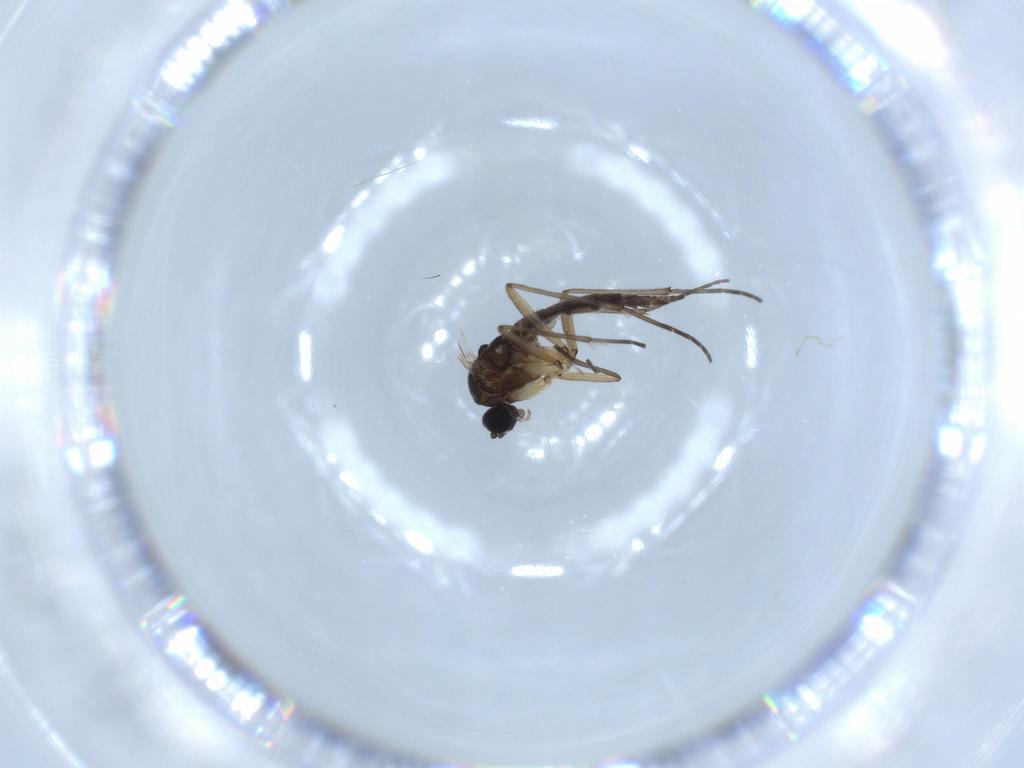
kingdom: Animalia
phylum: Arthropoda
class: Insecta
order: Diptera
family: Sciaridae
